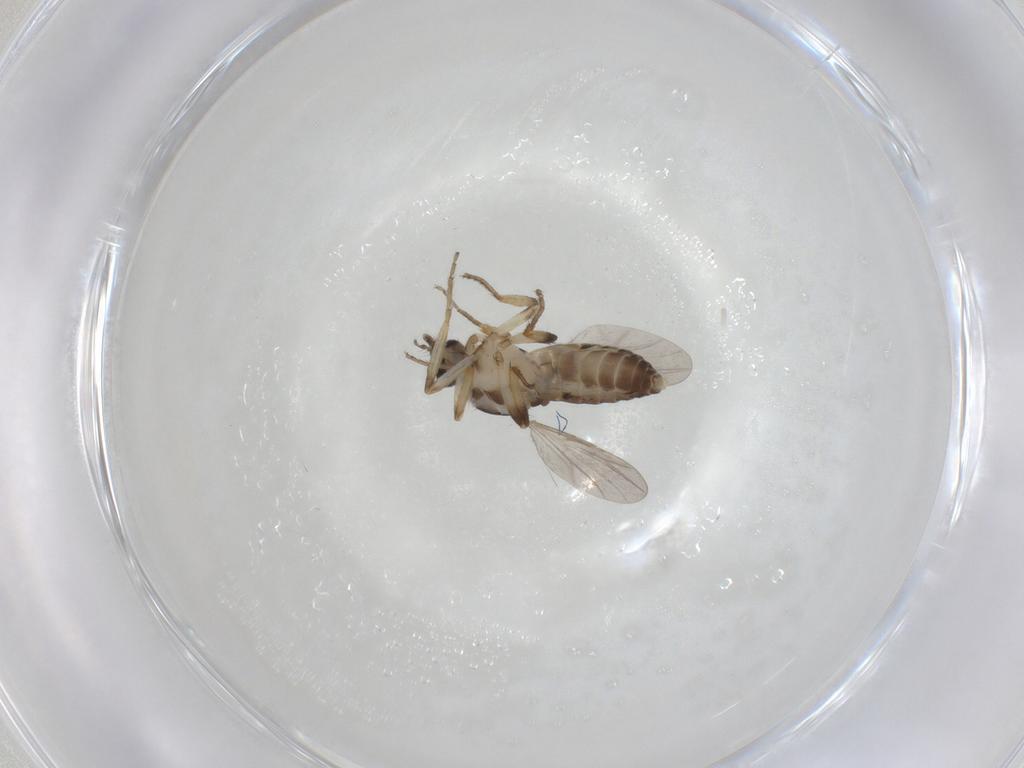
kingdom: Animalia
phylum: Arthropoda
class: Insecta
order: Diptera
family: Ceratopogonidae
